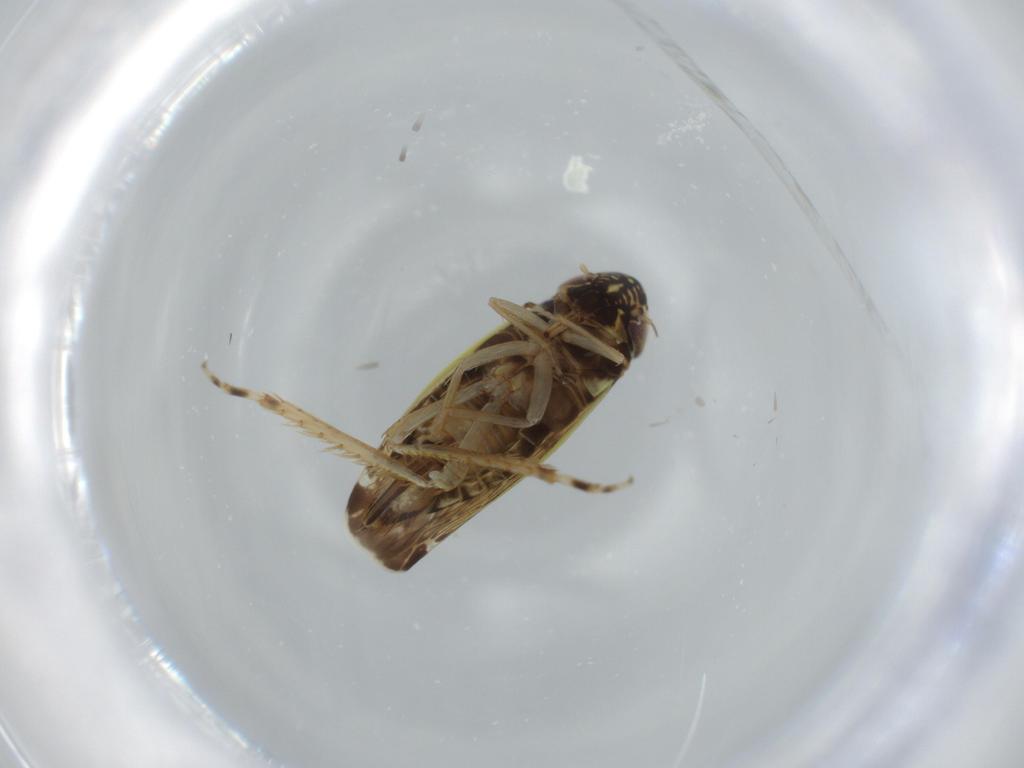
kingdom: Animalia
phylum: Arthropoda
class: Insecta
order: Hemiptera
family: Cicadellidae
